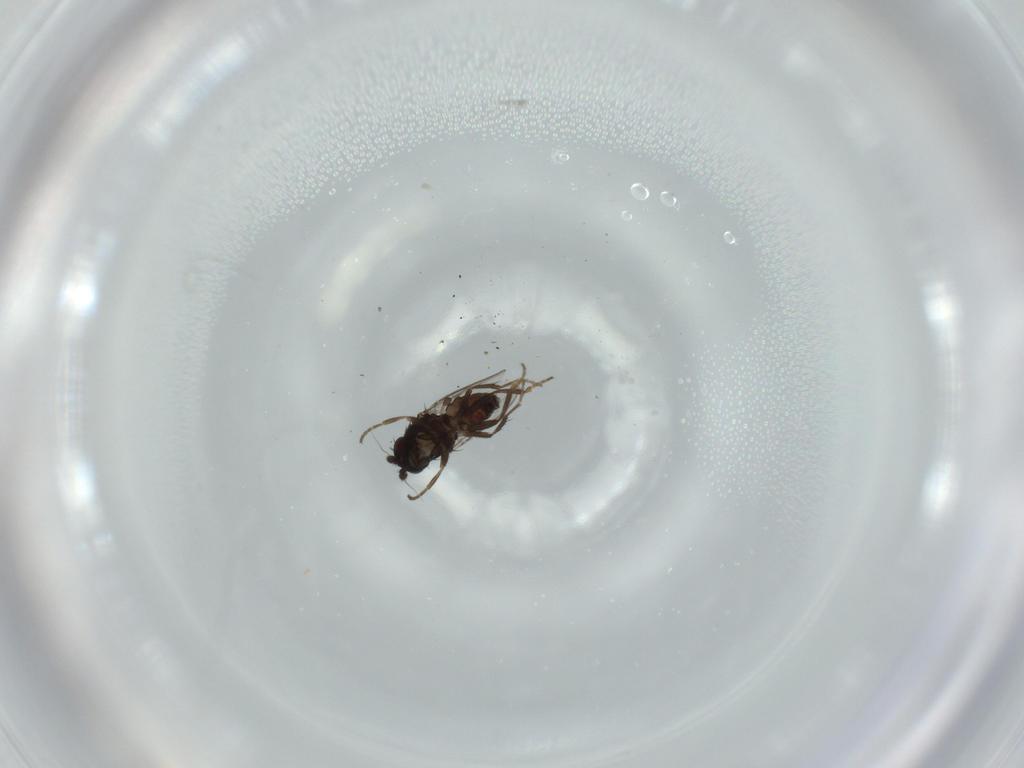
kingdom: Animalia
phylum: Arthropoda
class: Insecta
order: Diptera
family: Sphaeroceridae
